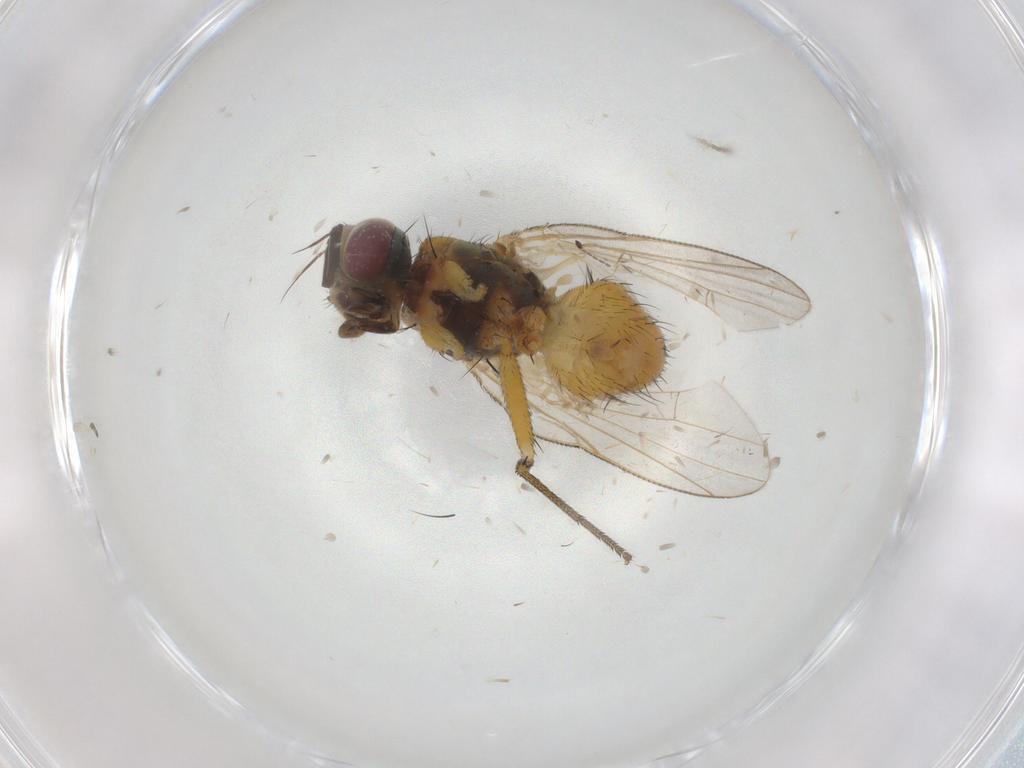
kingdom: Animalia
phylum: Arthropoda
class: Insecta
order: Diptera
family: Muscidae
